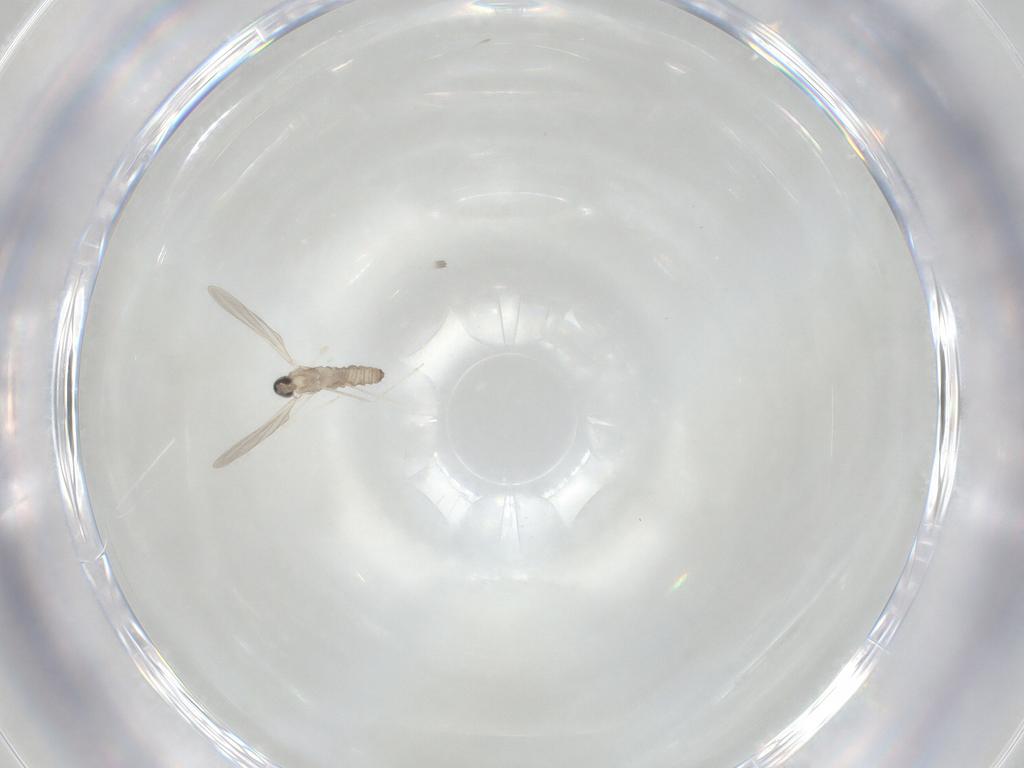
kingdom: Animalia
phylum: Arthropoda
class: Insecta
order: Diptera
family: Cecidomyiidae
